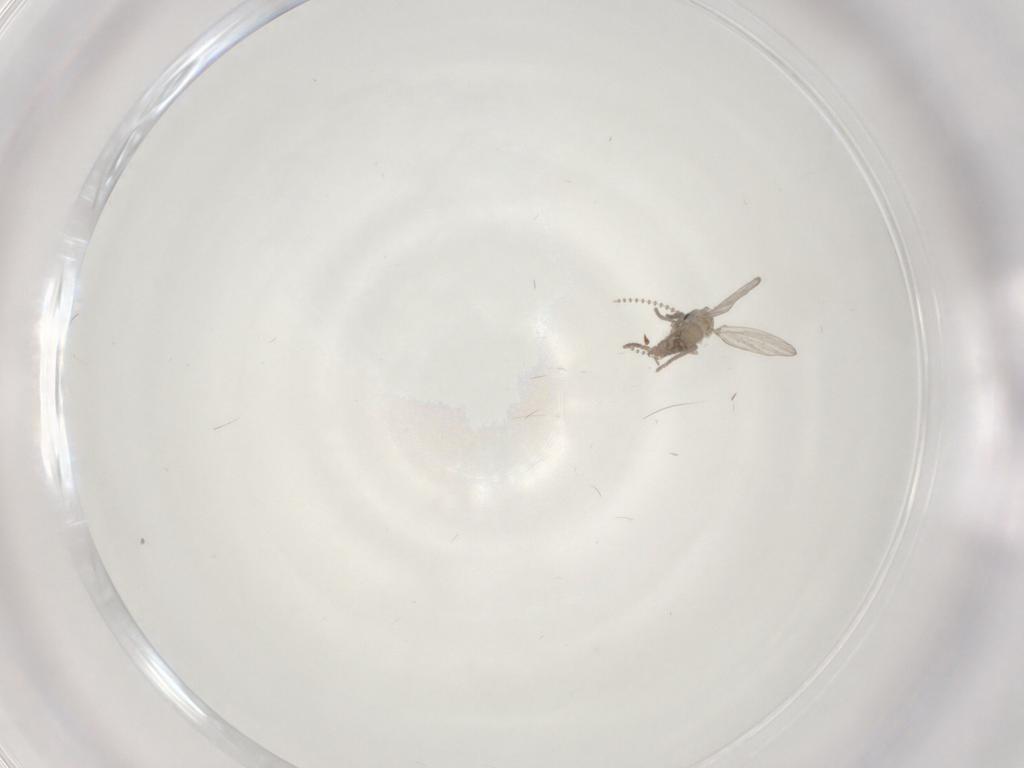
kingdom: Animalia
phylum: Arthropoda
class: Insecta
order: Diptera
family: Psychodidae
